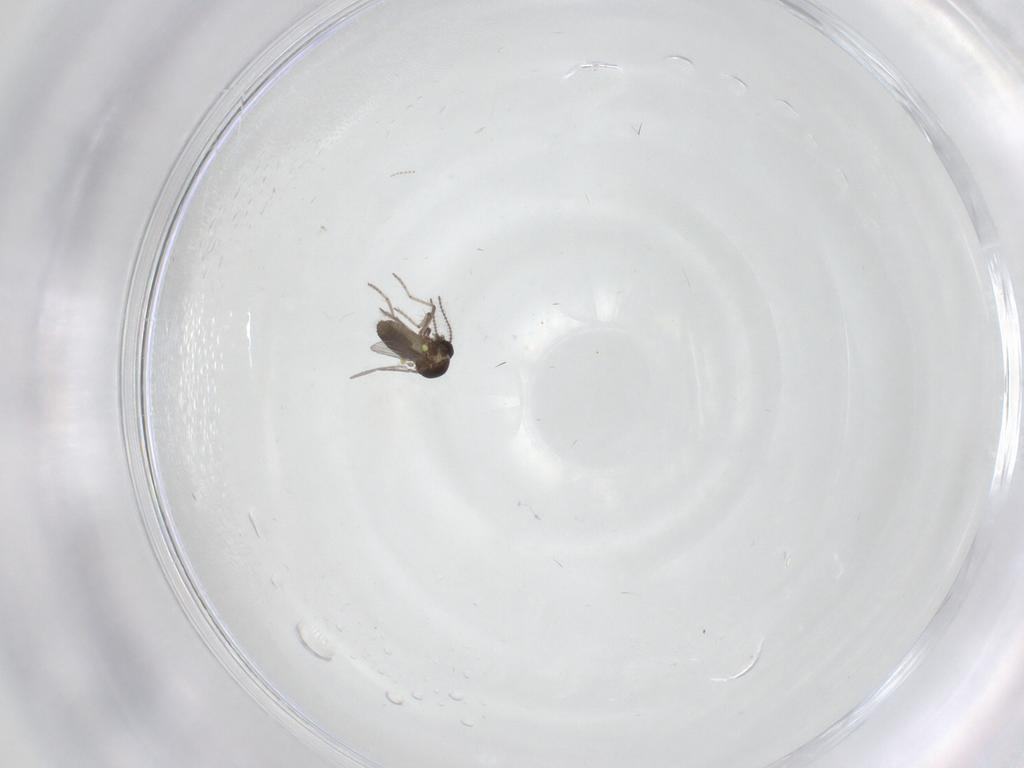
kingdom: Animalia
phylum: Arthropoda
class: Insecta
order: Diptera
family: Ceratopogonidae
